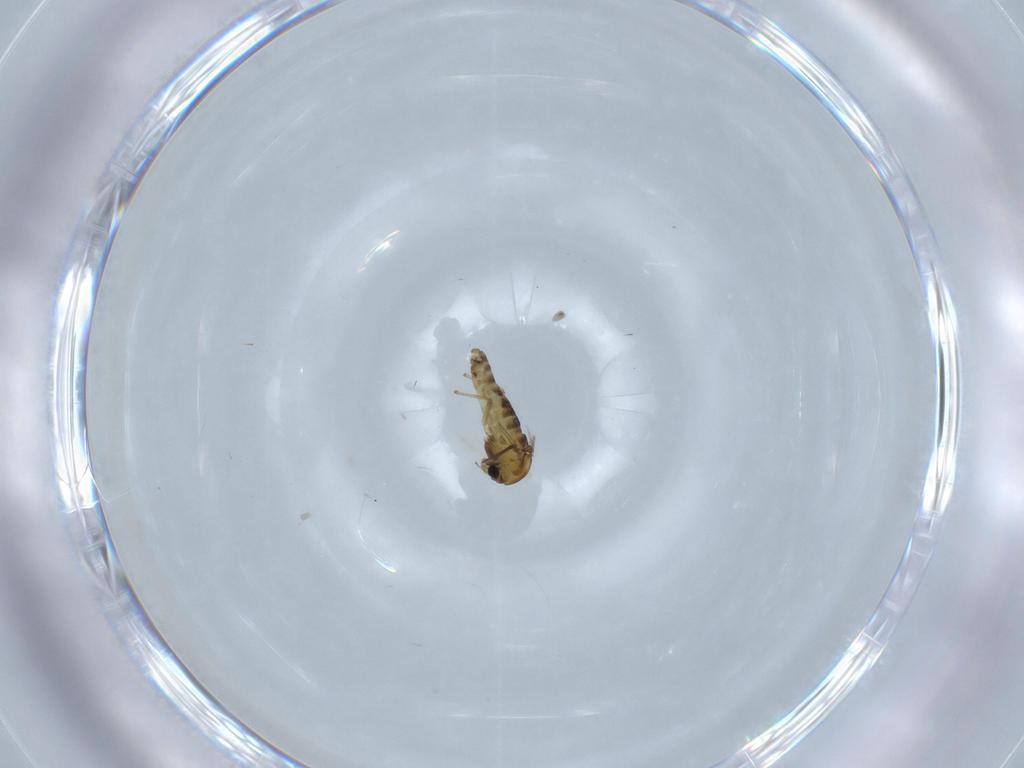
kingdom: Animalia
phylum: Arthropoda
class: Insecta
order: Diptera
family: Chironomidae
